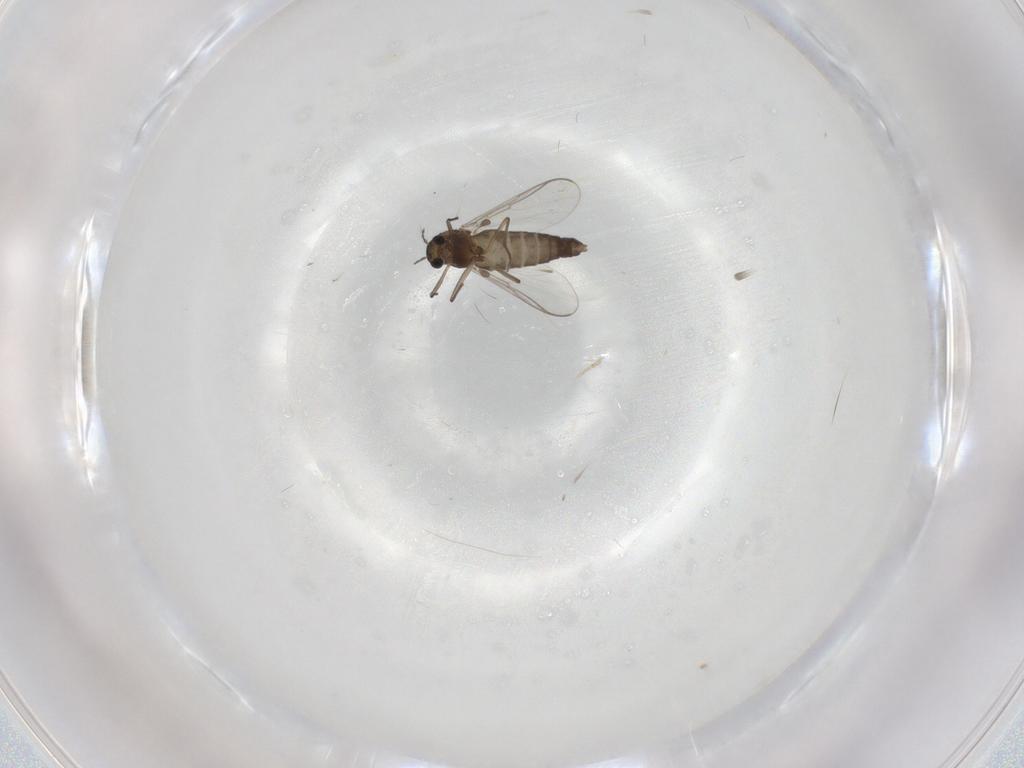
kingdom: Animalia
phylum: Arthropoda
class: Insecta
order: Diptera
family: Chironomidae
